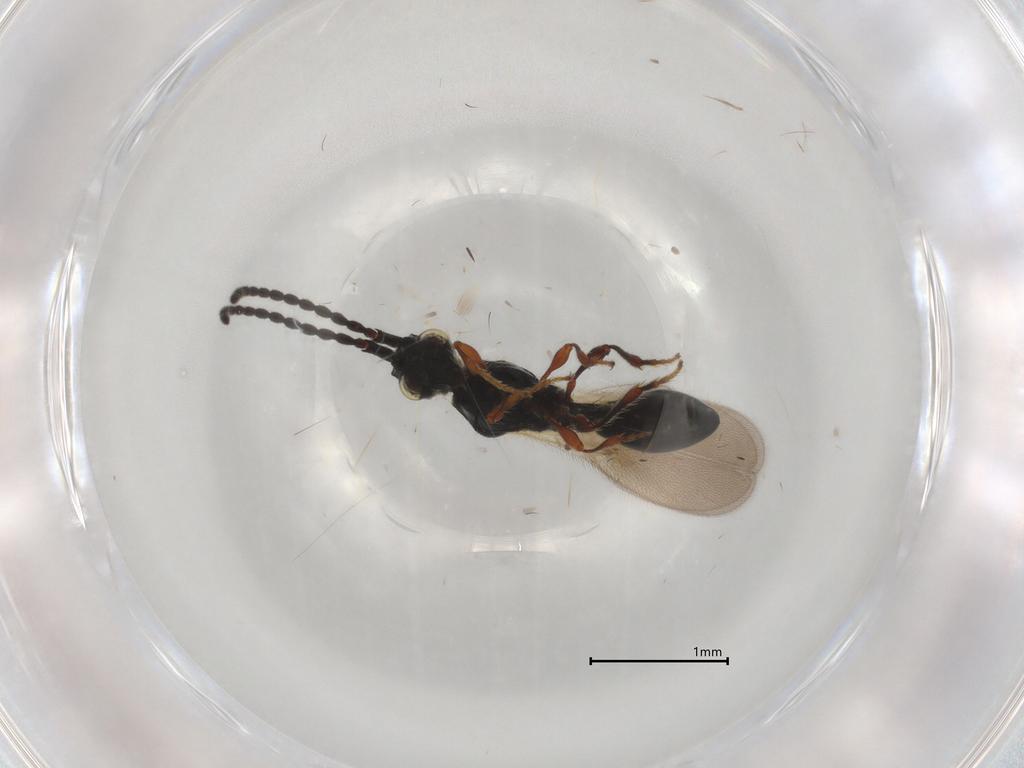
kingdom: Animalia
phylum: Arthropoda
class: Insecta
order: Hymenoptera
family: Diapriidae
